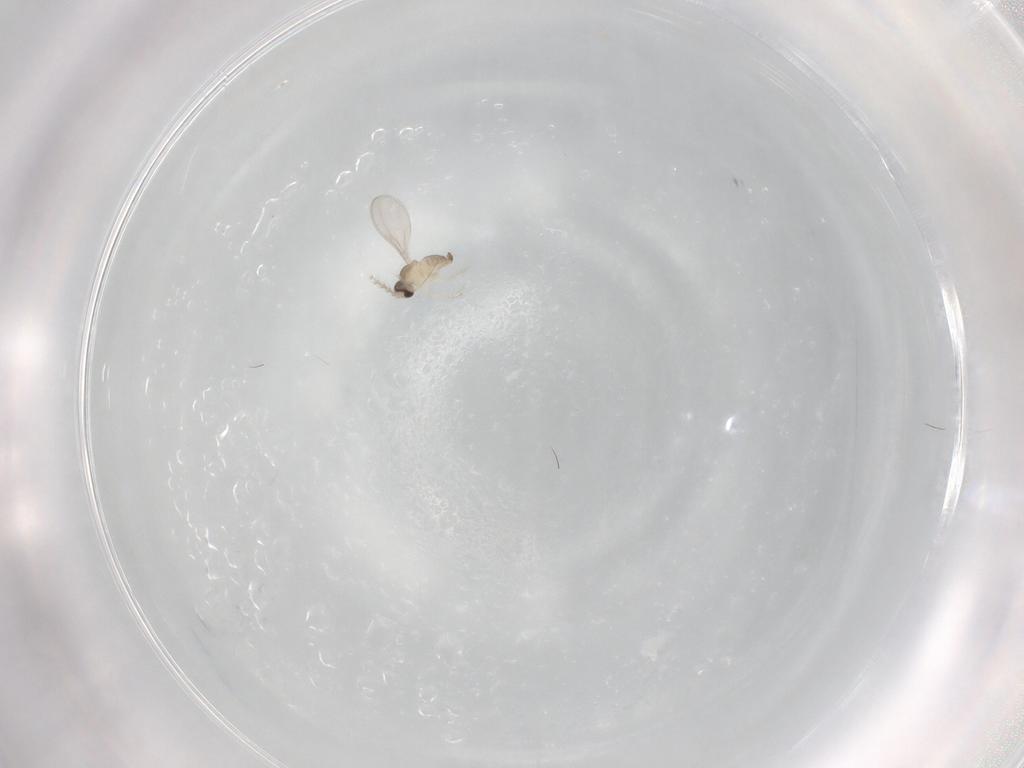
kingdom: Animalia
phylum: Arthropoda
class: Insecta
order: Diptera
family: Cecidomyiidae
